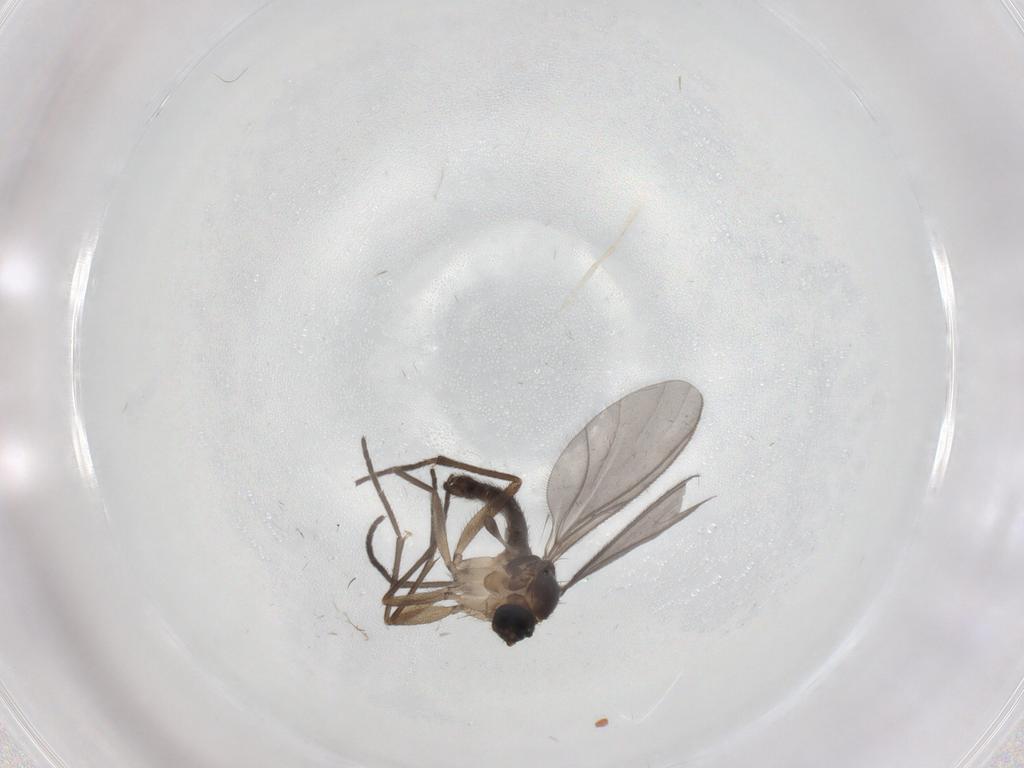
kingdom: Animalia
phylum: Arthropoda
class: Insecta
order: Diptera
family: Sciaridae
